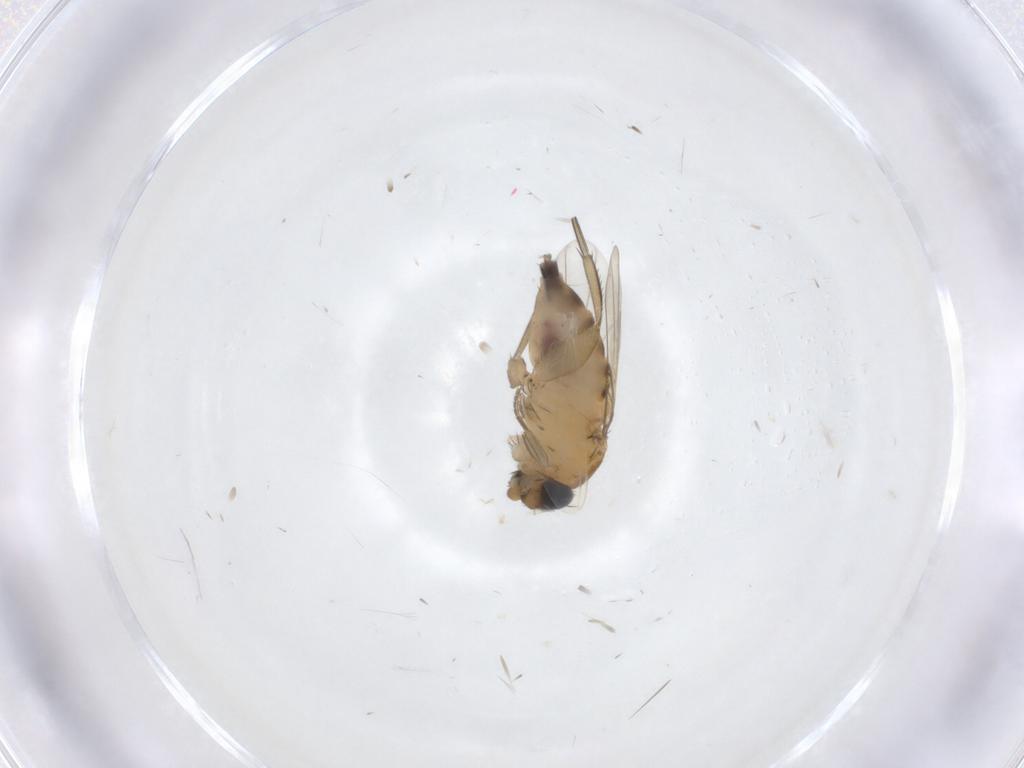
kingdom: Animalia
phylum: Arthropoda
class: Insecta
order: Diptera
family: Phoridae
